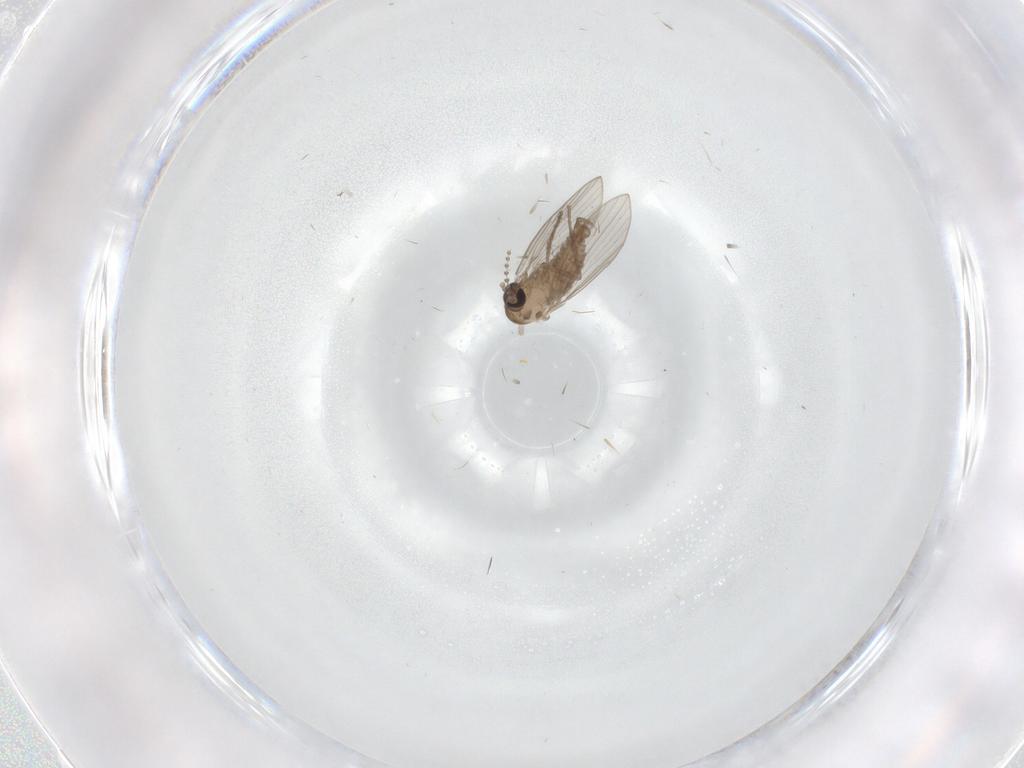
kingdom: Animalia
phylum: Arthropoda
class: Insecta
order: Diptera
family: Psychodidae
